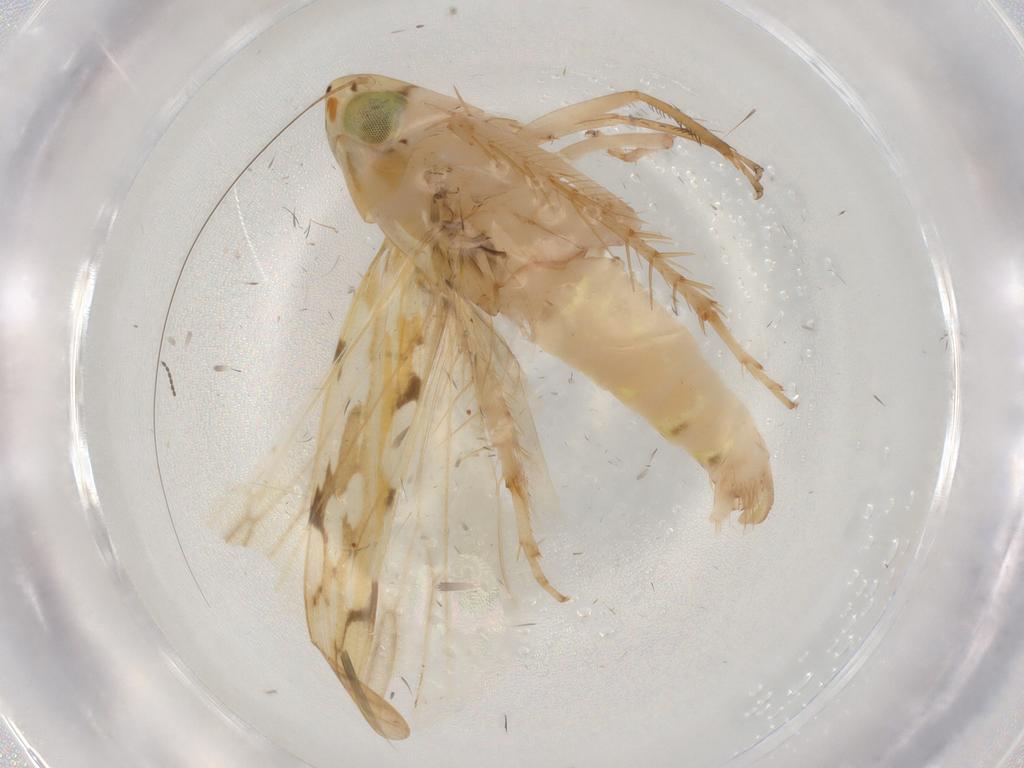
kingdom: Animalia
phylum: Arthropoda
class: Insecta
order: Hemiptera
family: Cicadellidae
